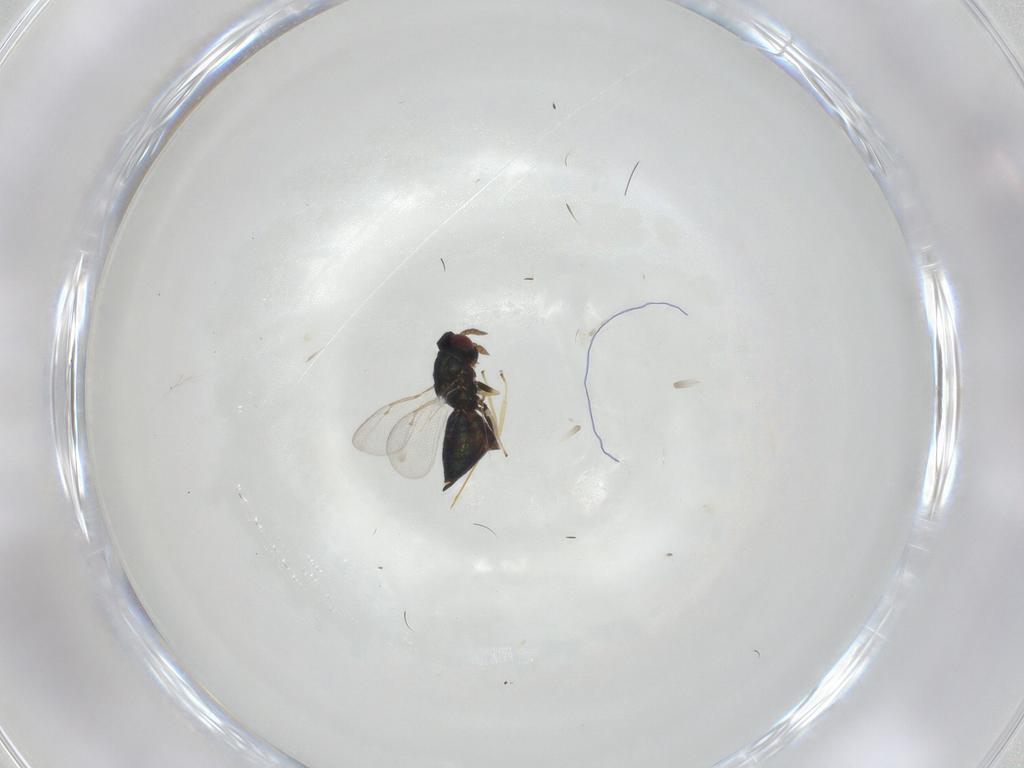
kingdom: Animalia
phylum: Arthropoda
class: Insecta
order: Hymenoptera
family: Eulophidae
